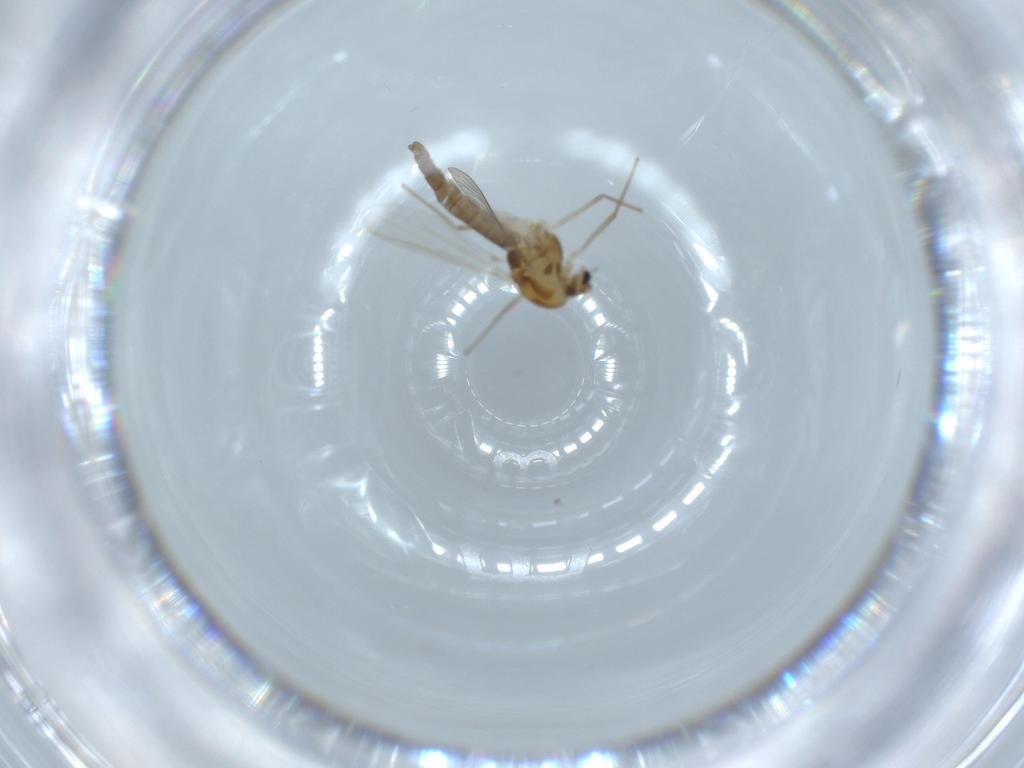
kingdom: Animalia
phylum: Arthropoda
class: Insecta
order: Diptera
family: Chironomidae
